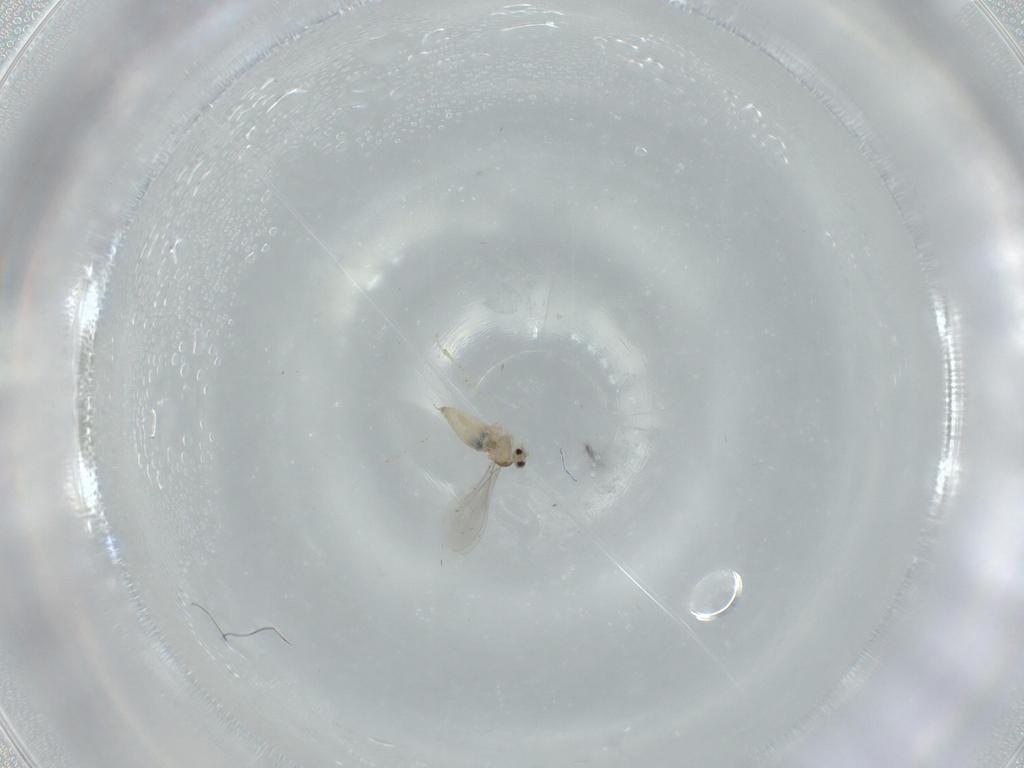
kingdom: Animalia
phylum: Arthropoda
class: Insecta
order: Diptera
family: Cecidomyiidae
